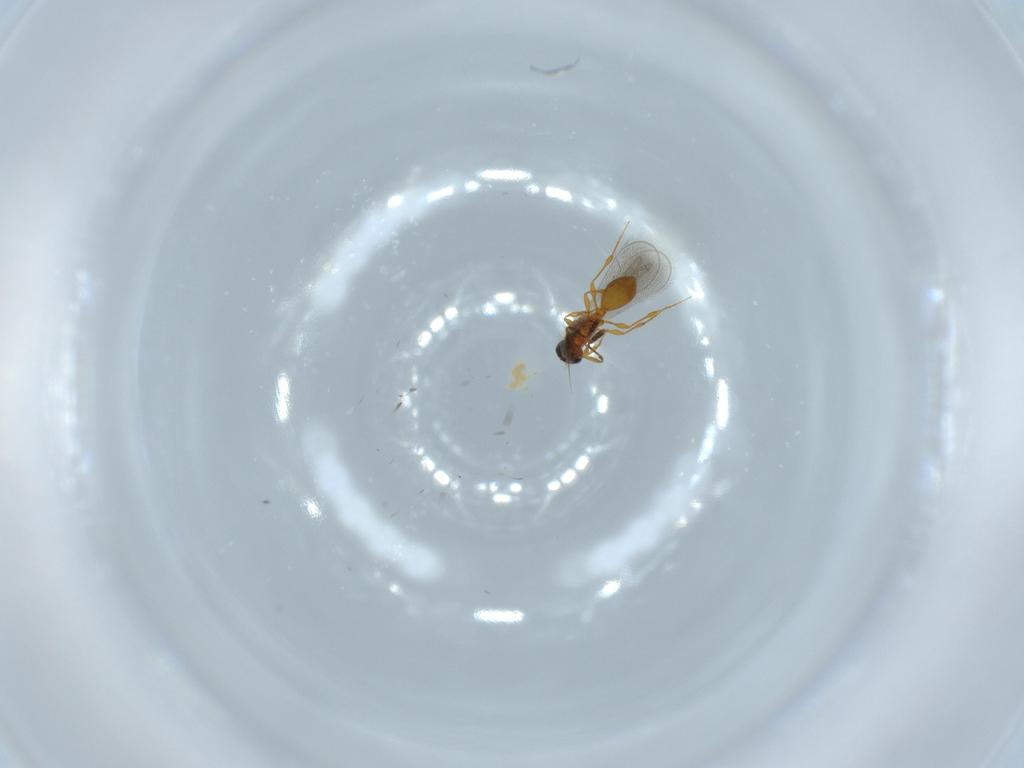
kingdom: Animalia
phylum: Arthropoda
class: Insecta
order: Hymenoptera
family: Platygastridae
